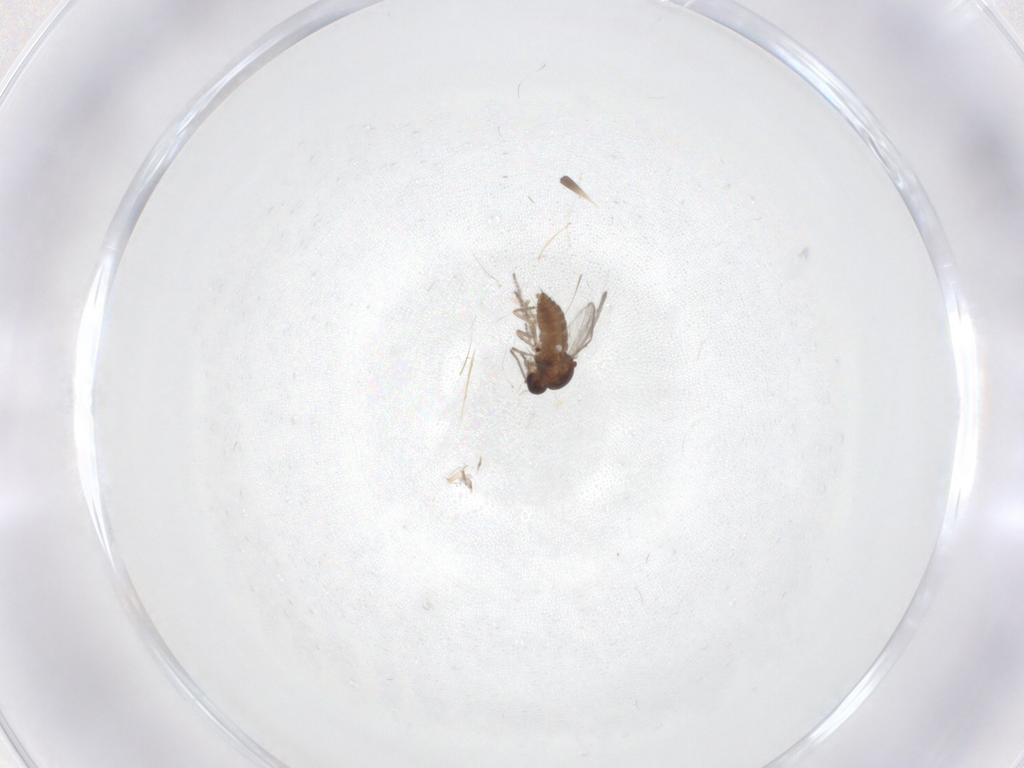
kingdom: Animalia
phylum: Arthropoda
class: Insecta
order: Diptera
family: Ceratopogonidae
